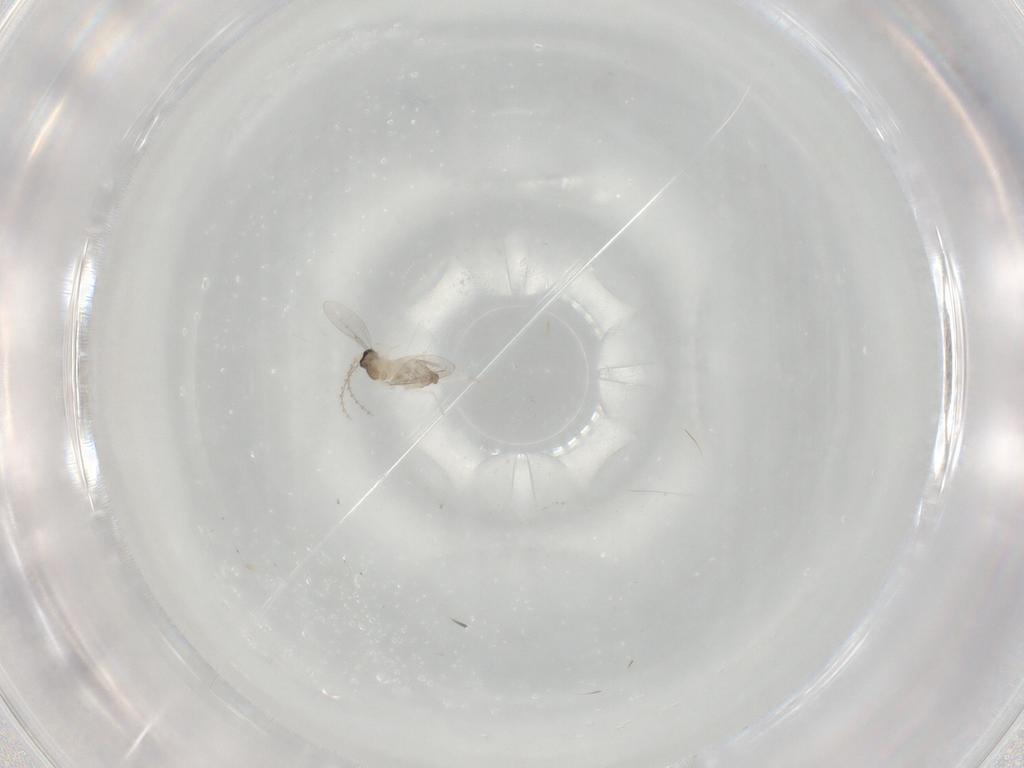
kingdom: Animalia
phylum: Arthropoda
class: Insecta
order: Diptera
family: Cecidomyiidae
